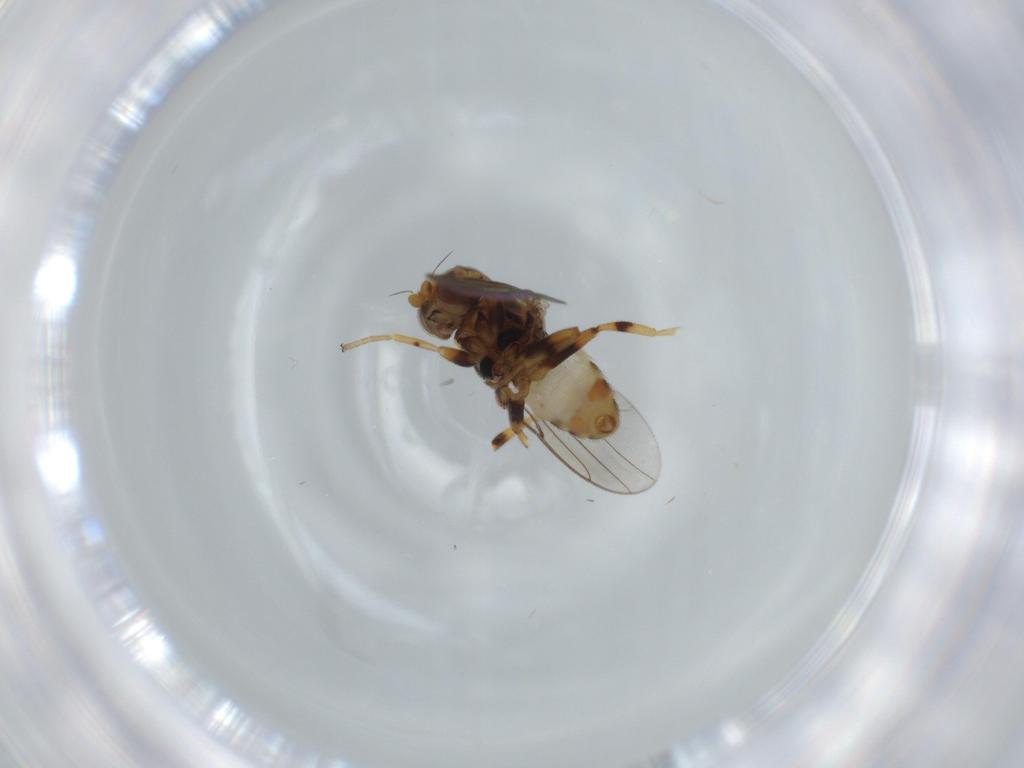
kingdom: Animalia
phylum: Arthropoda
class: Insecta
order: Diptera
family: Chloropidae
